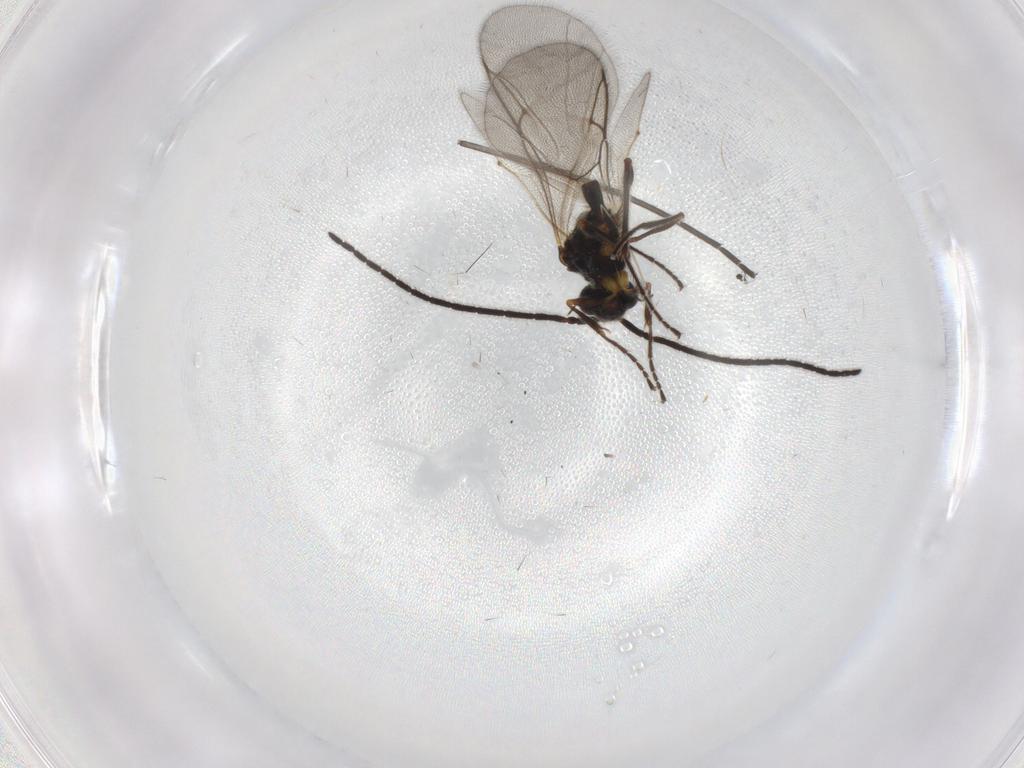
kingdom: Animalia
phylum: Arthropoda
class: Insecta
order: Hymenoptera
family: Diapriidae
